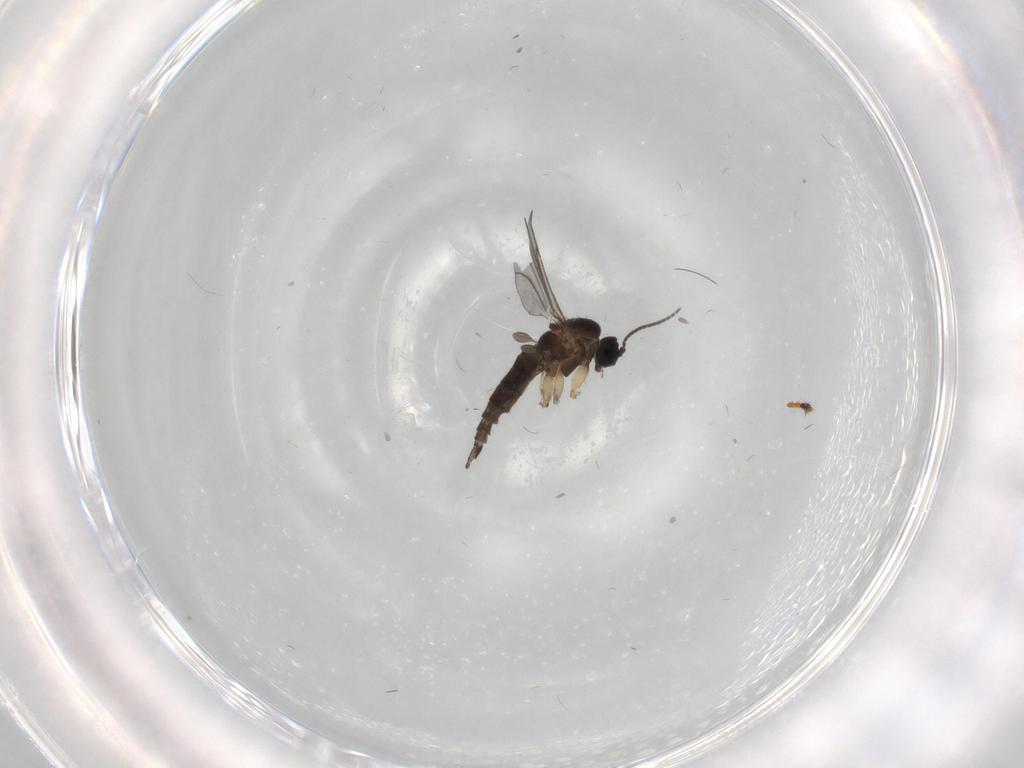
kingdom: Animalia
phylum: Arthropoda
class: Insecta
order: Diptera
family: Sciaridae
